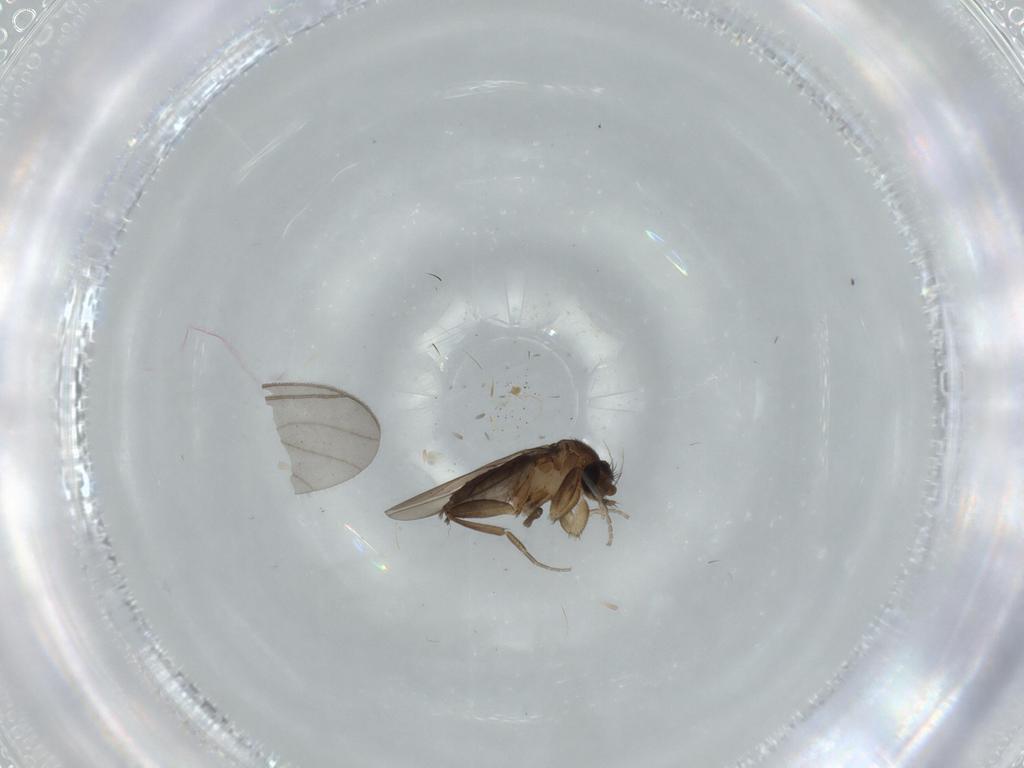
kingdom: Animalia
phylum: Arthropoda
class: Insecta
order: Diptera
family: Phoridae
